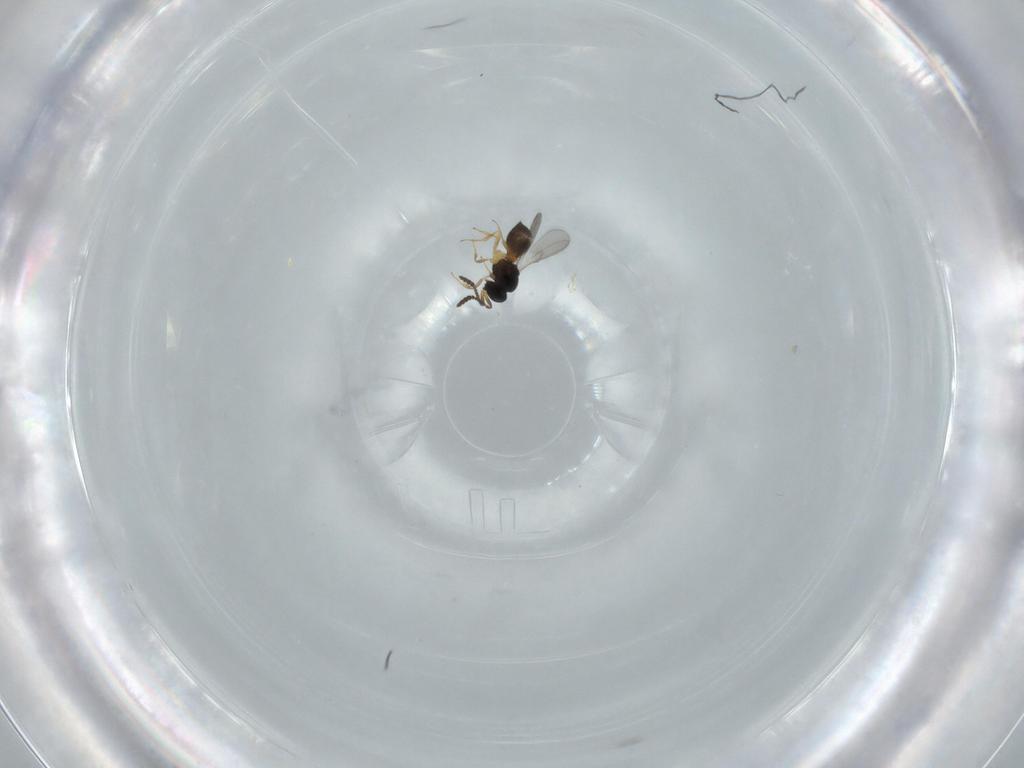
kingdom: Animalia
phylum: Arthropoda
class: Insecta
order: Hymenoptera
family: Scelionidae
